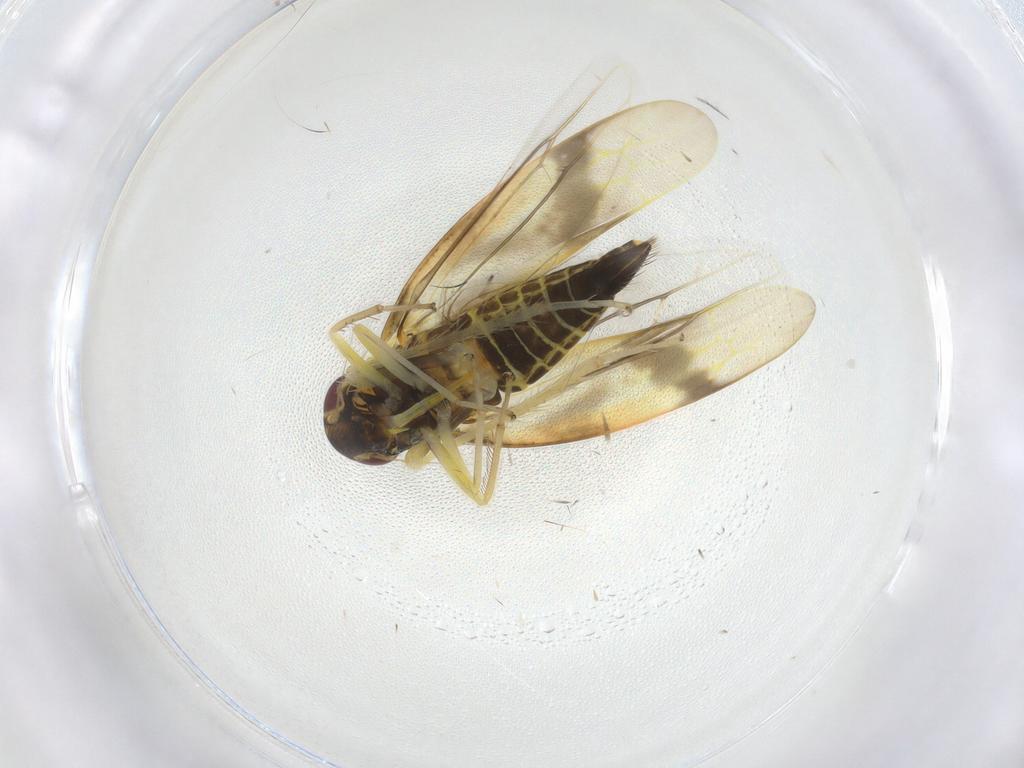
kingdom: Animalia
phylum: Arthropoda
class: Insecta
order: Hemiptera
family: Cicadellidae
